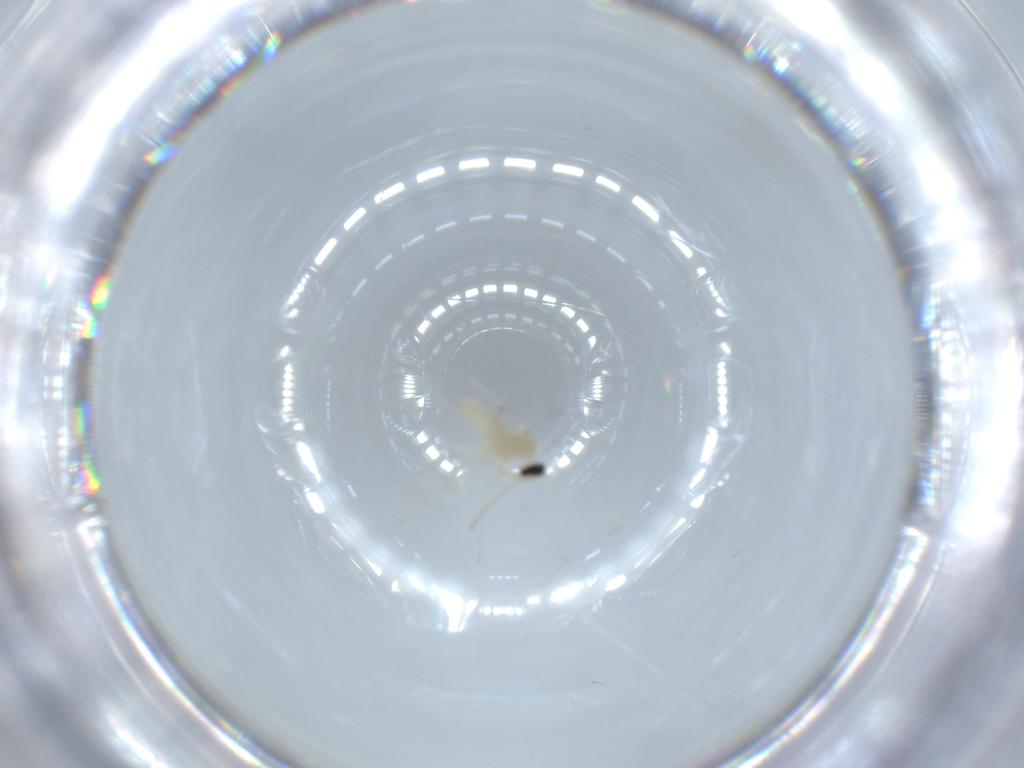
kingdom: Animalia
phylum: Arthropoda
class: Insecta
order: Diptera
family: Cecidomyiidae
